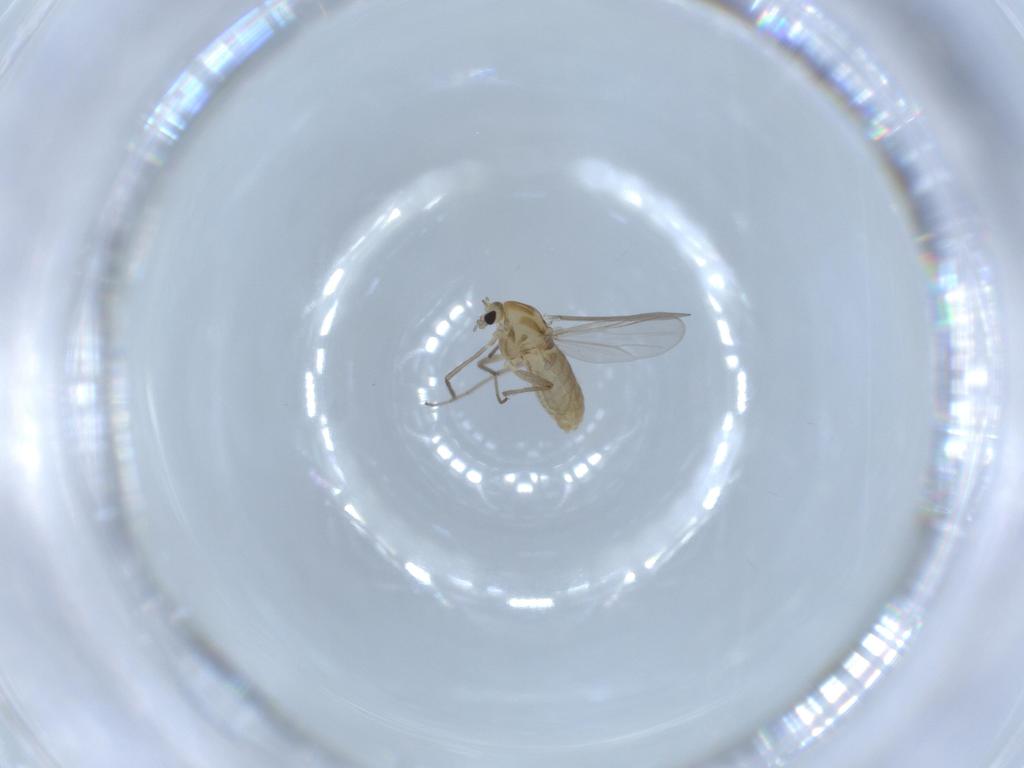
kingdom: Animalia
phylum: Arthropoda
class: Insecta
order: Diptera
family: Chironomidae
